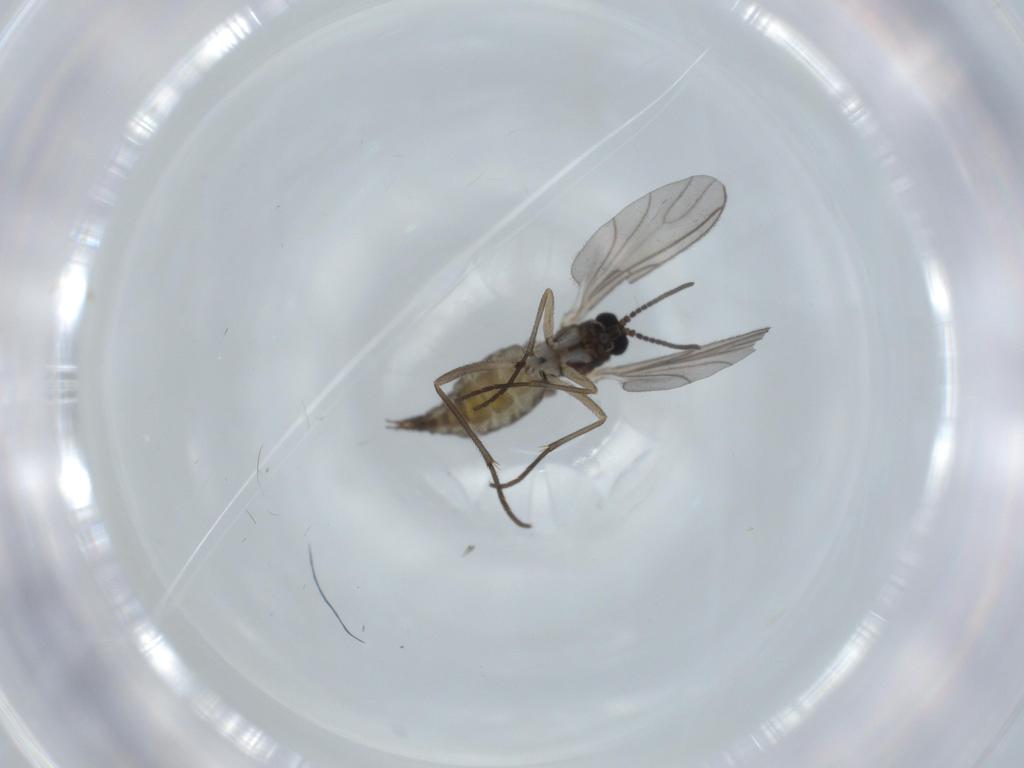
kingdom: Animalia
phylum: Arthropoda
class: Insecta
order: Diptera
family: Sciaridae
